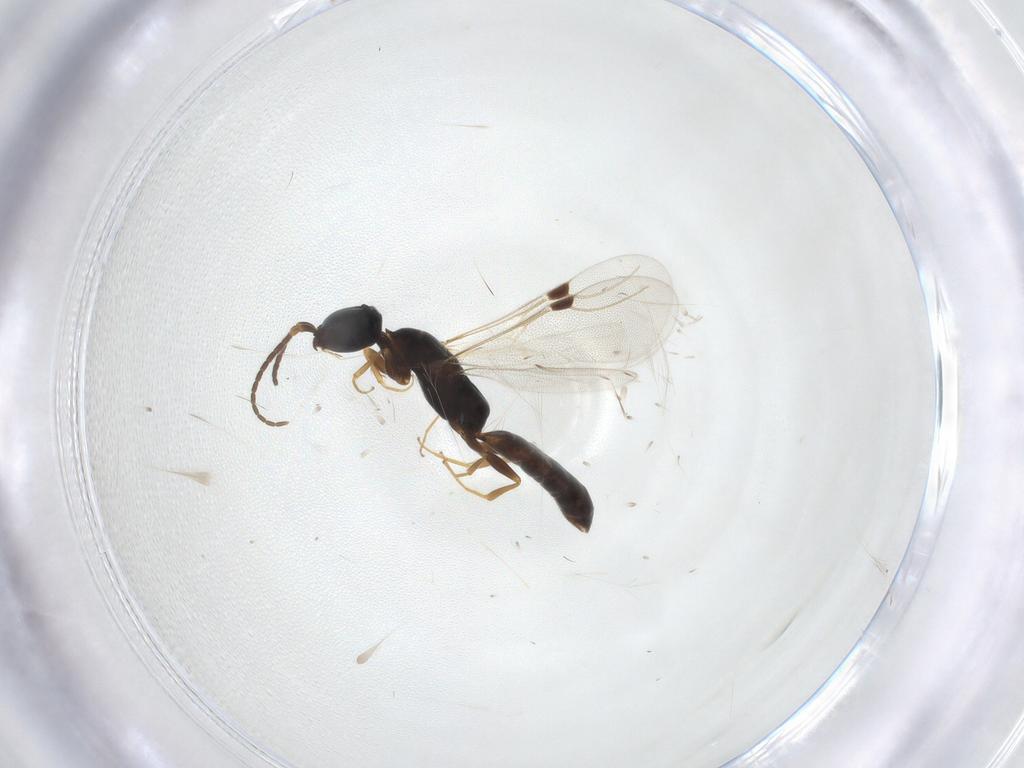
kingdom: Animalia
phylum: Arthropoda
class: Insecta
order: Hymenoptera
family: Bethylidae
